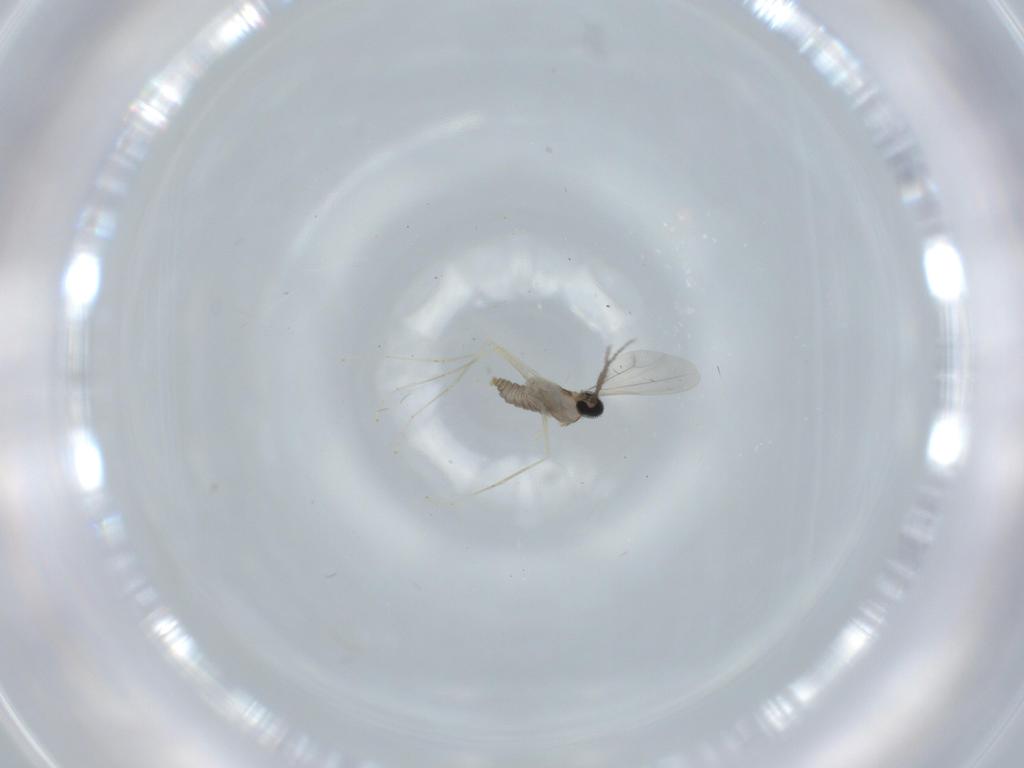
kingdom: Animalia
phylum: Arthropoda
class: Insecta
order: Diptera
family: Cecidomyiidae
